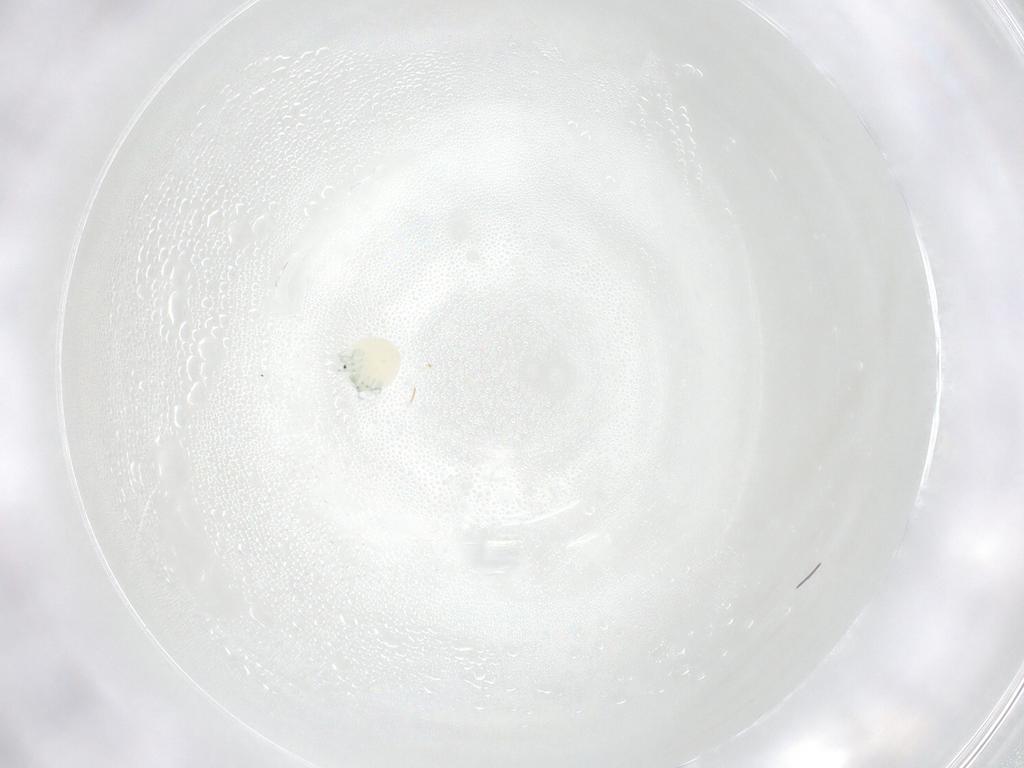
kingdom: Animalia
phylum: Arthropoda
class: Arachnida
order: Trombidiformes
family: Arrenuridae
